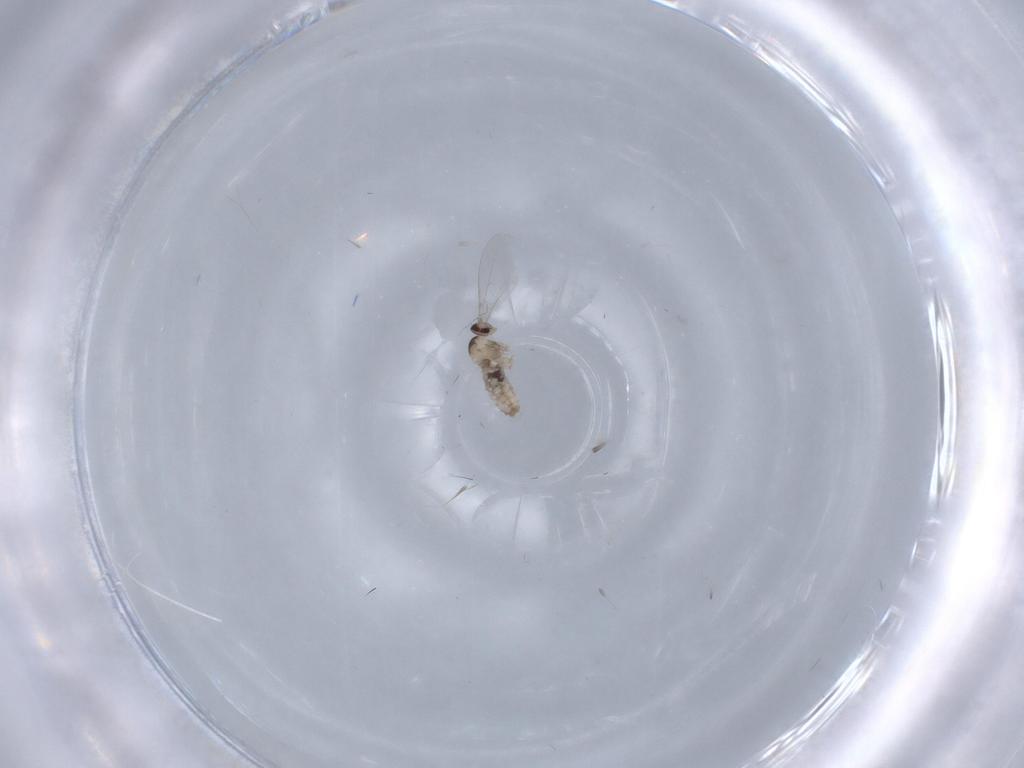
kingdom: Animalia
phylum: Arthropoda
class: Insecta
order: Diptera
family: Cecidomyiidae
